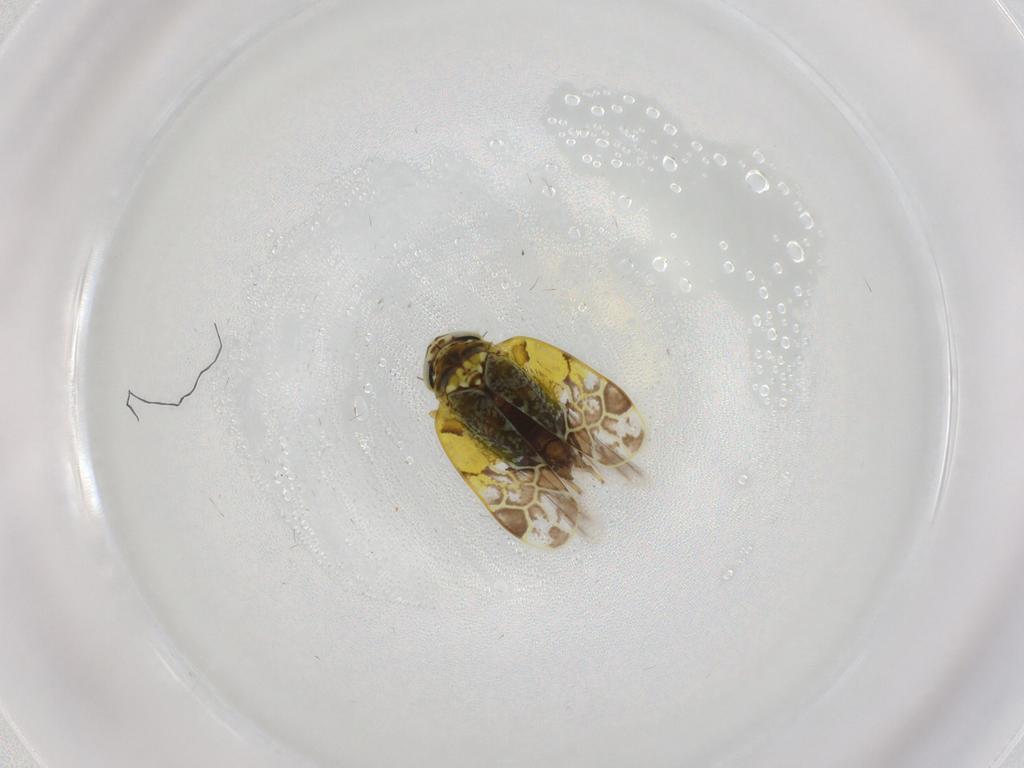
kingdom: Animalia
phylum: Arthropoda
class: Insecta
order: Hemiptera
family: Cicadellidae
